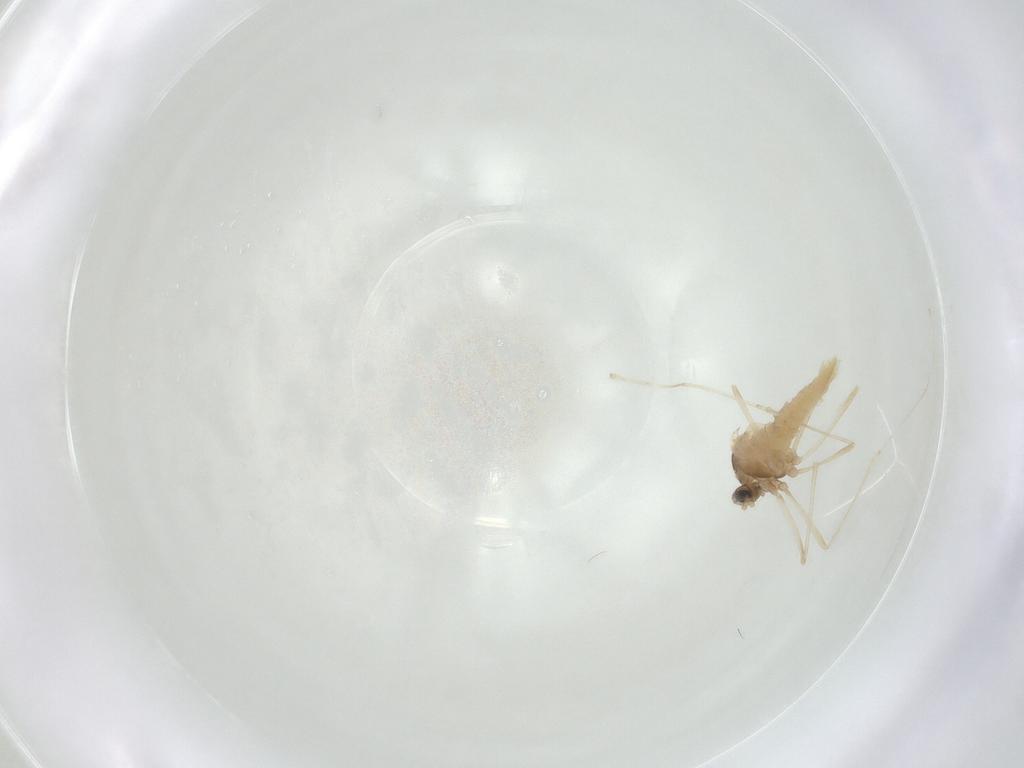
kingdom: Animalia
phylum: Arthropoda
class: Insecta
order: Diptera
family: Cecidomyiidae
